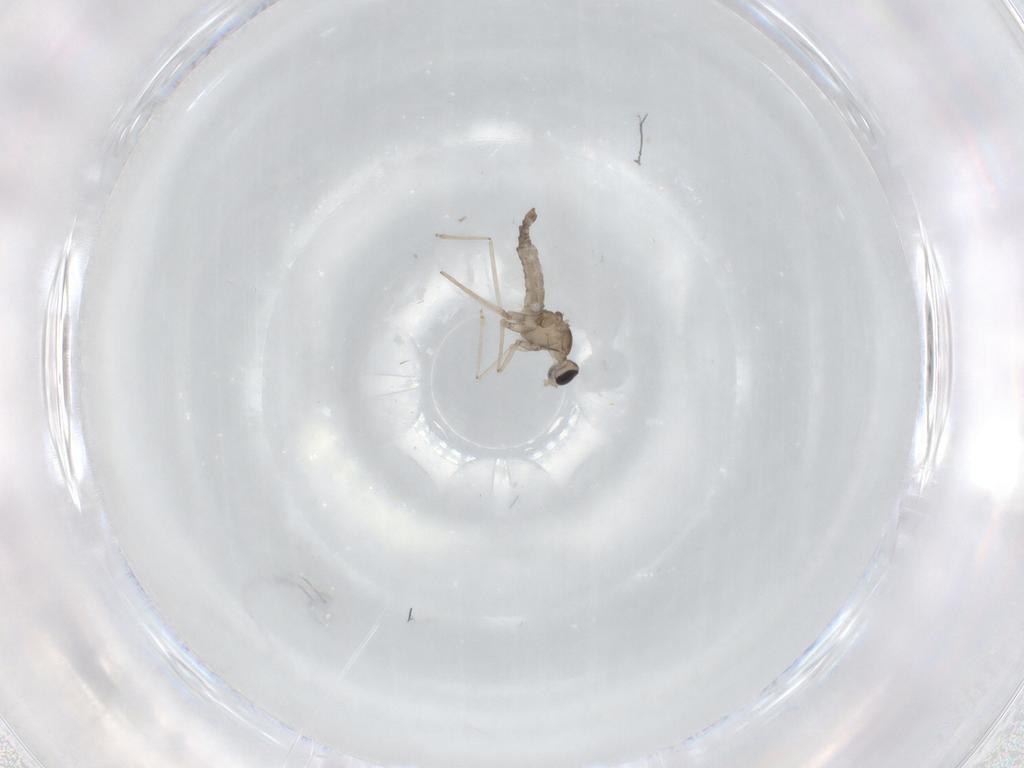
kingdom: Animalia
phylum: Arthropoda
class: Insecta
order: Diptera
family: Cecidomyiidae
